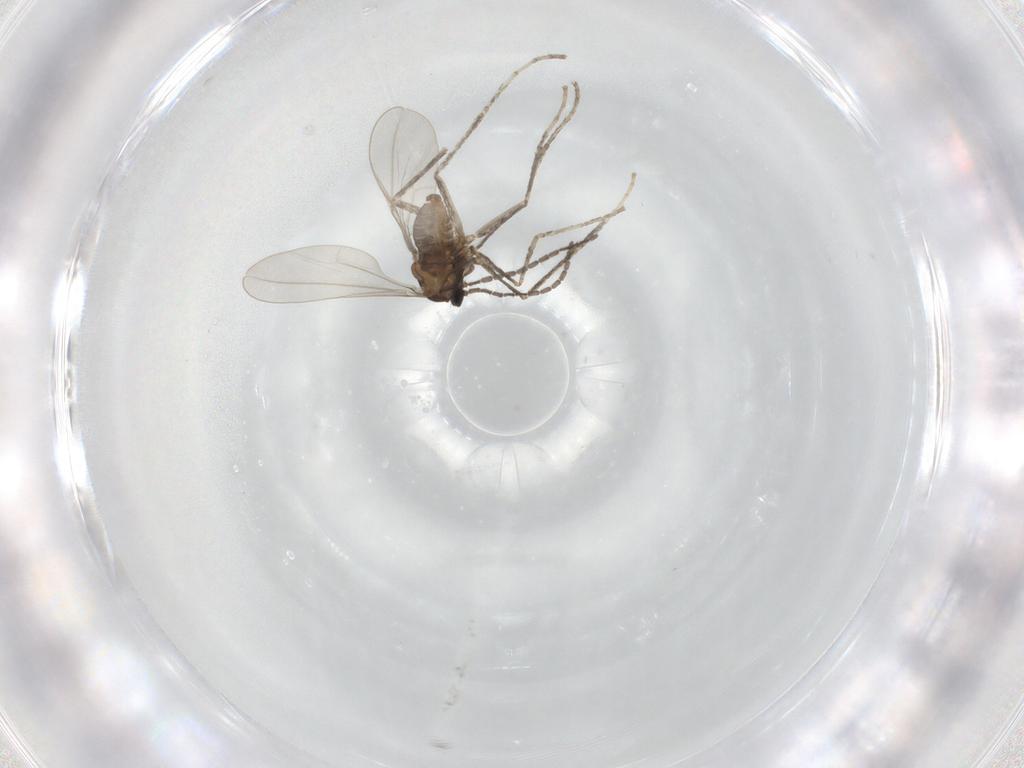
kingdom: Animalia
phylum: Arthropoda
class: Insecta
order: Diptera
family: Cecidomyiidae
